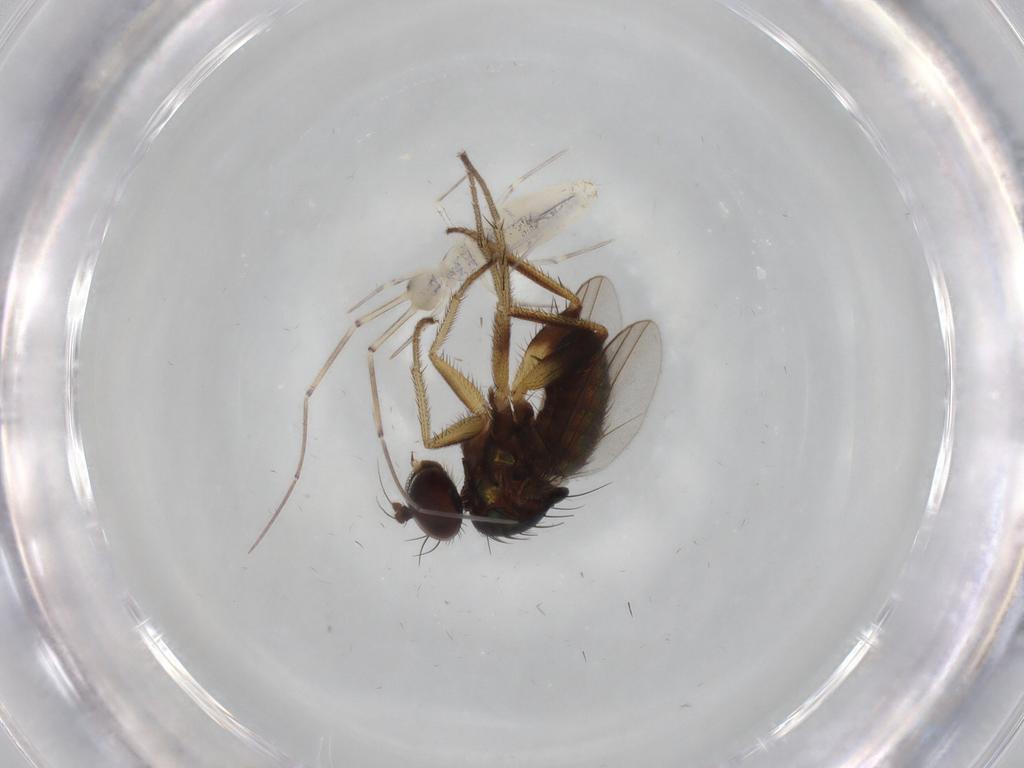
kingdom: Animalia
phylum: Arthropoda
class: Insecta
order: Diptera
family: Dolichopodidae
